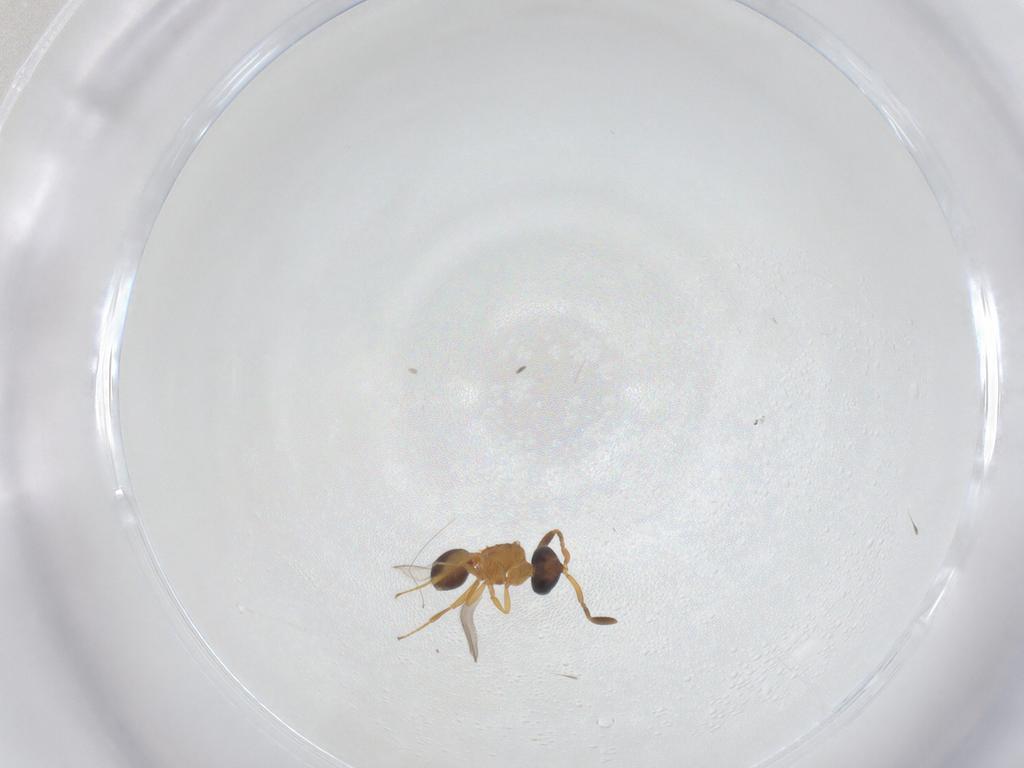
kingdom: Animalia
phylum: Arthropoda
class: Insecta
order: Hymenoptera
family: Scelionidae
